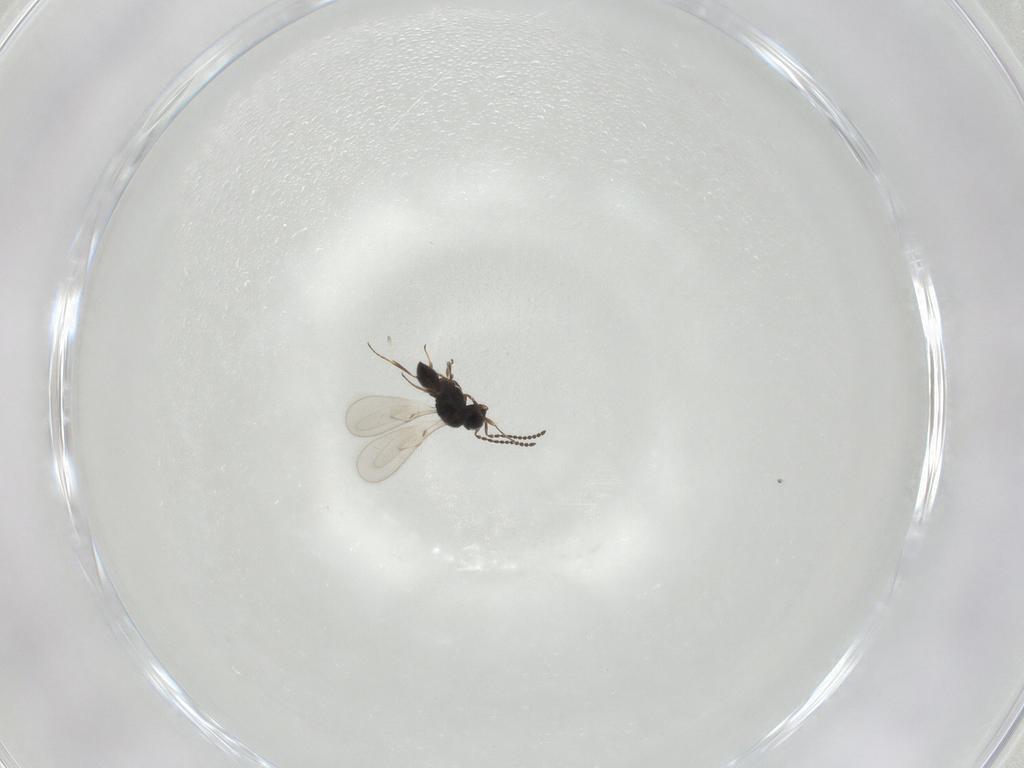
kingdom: Animalia
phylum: Arthropoda
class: Insecta
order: Hymenoptera
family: Scelionidae
